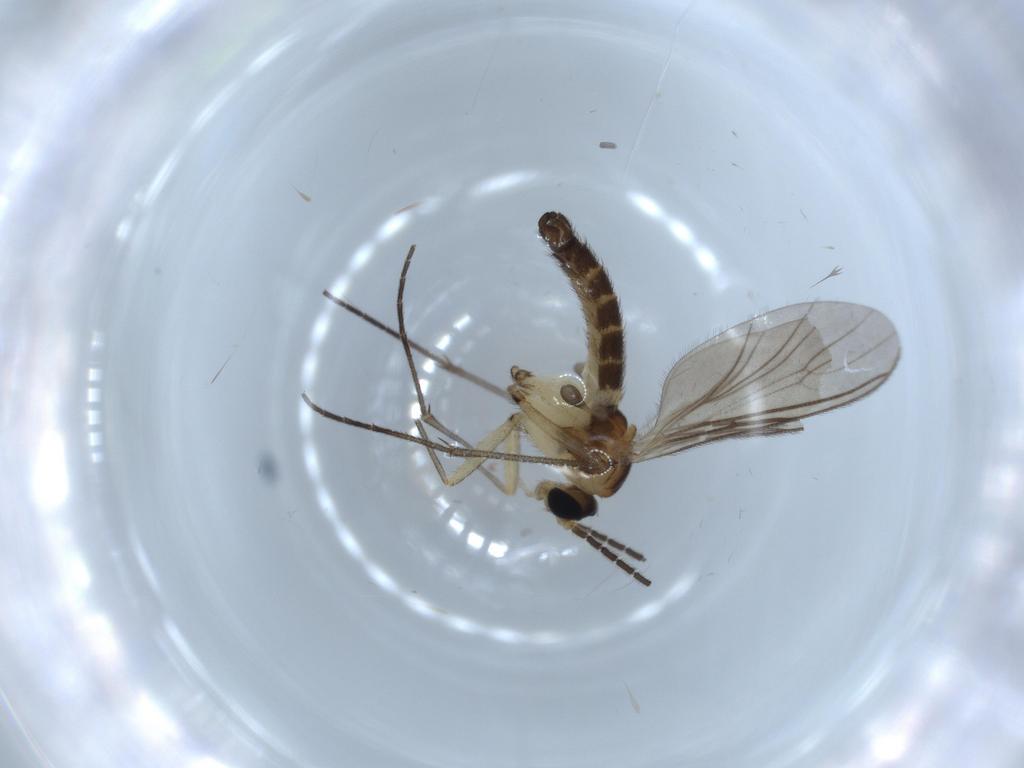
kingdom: Animalia
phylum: Arthropoda
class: Insecta
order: Diptera
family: Sciaridae
